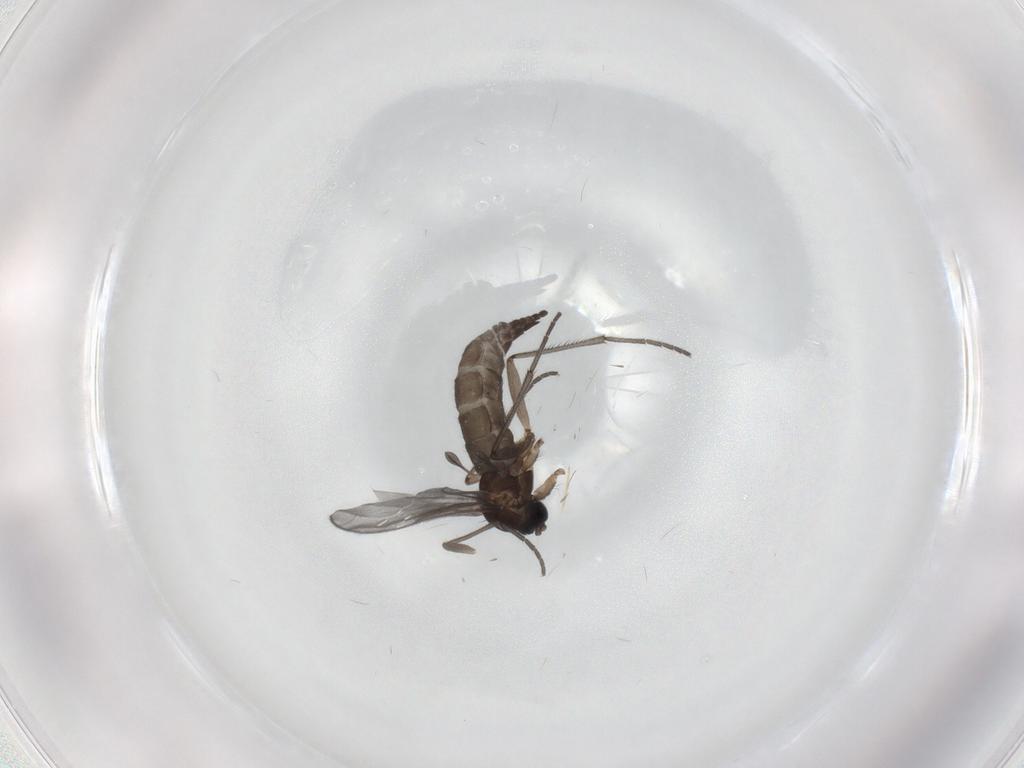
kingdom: Animalia
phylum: Arthropoda
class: Insecta
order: Diptera
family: Sciaridae
